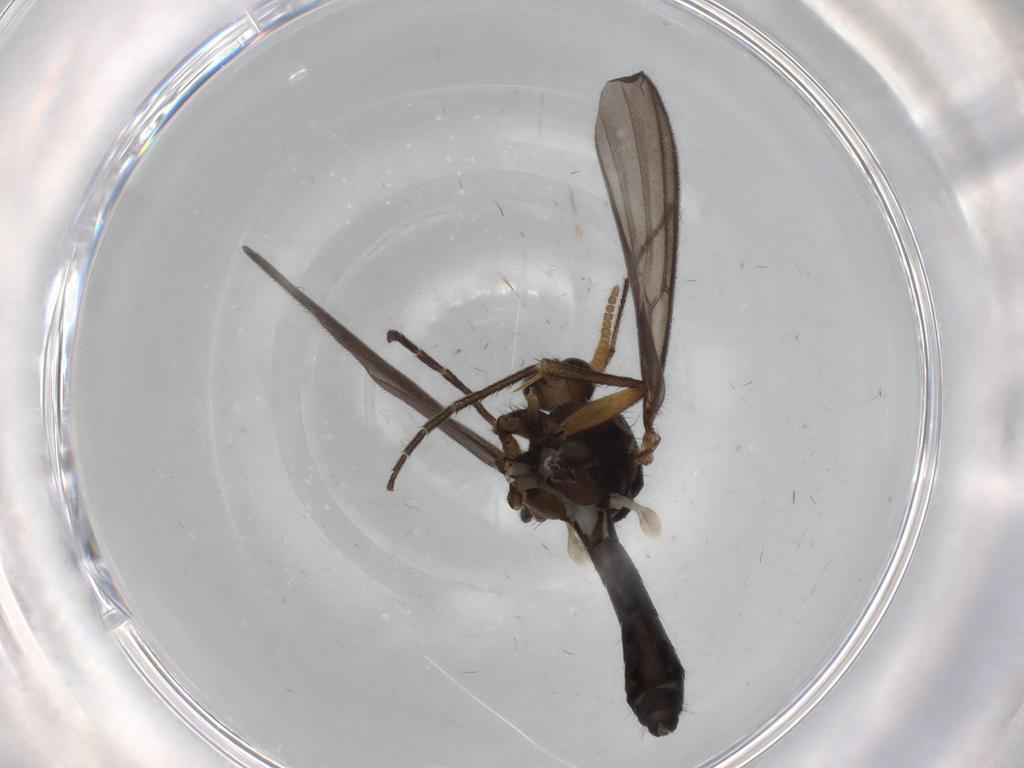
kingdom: Animalia
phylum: Arthropoda
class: Insecta
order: Diptera
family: Mycetophilidae
